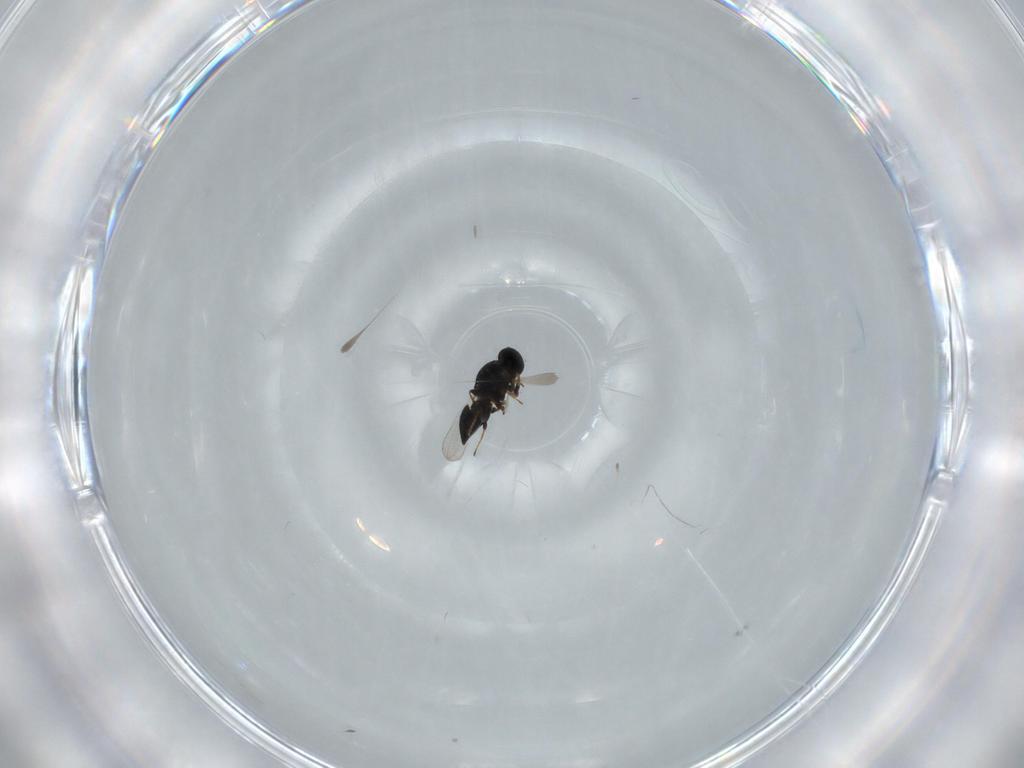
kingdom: Animalia
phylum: Arthropoda
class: Insecta
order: Hymenoptera
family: Platygastridae
